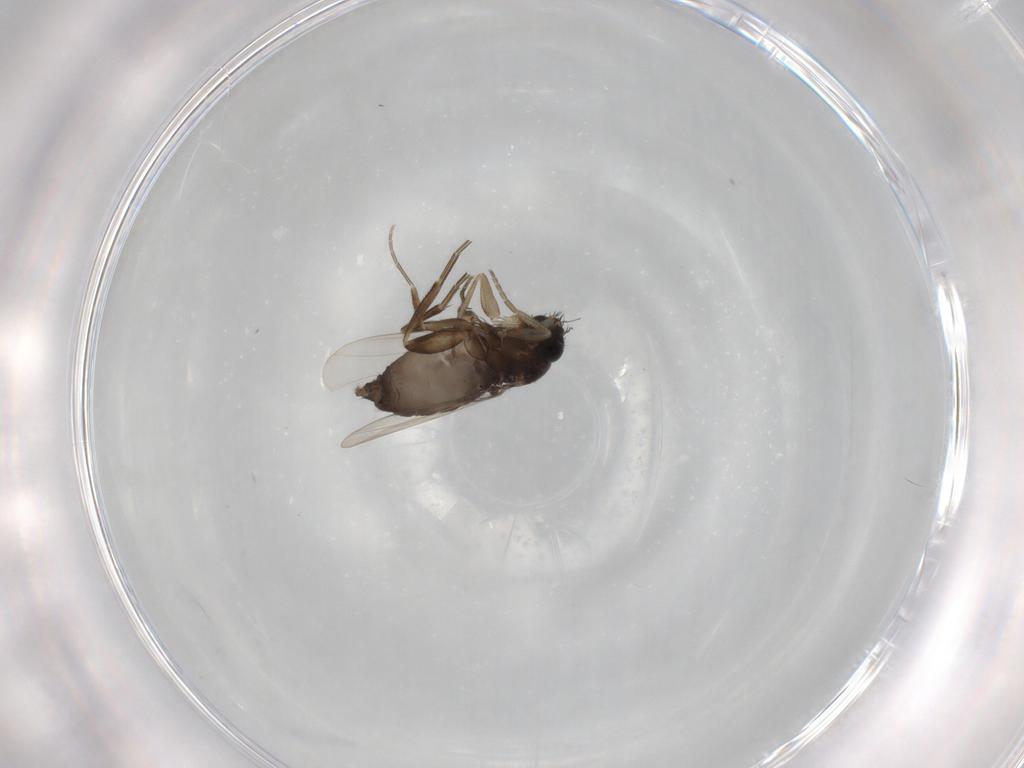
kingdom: Animalia
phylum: Arthropoda
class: Insecta
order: Diptera
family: Phoridae
